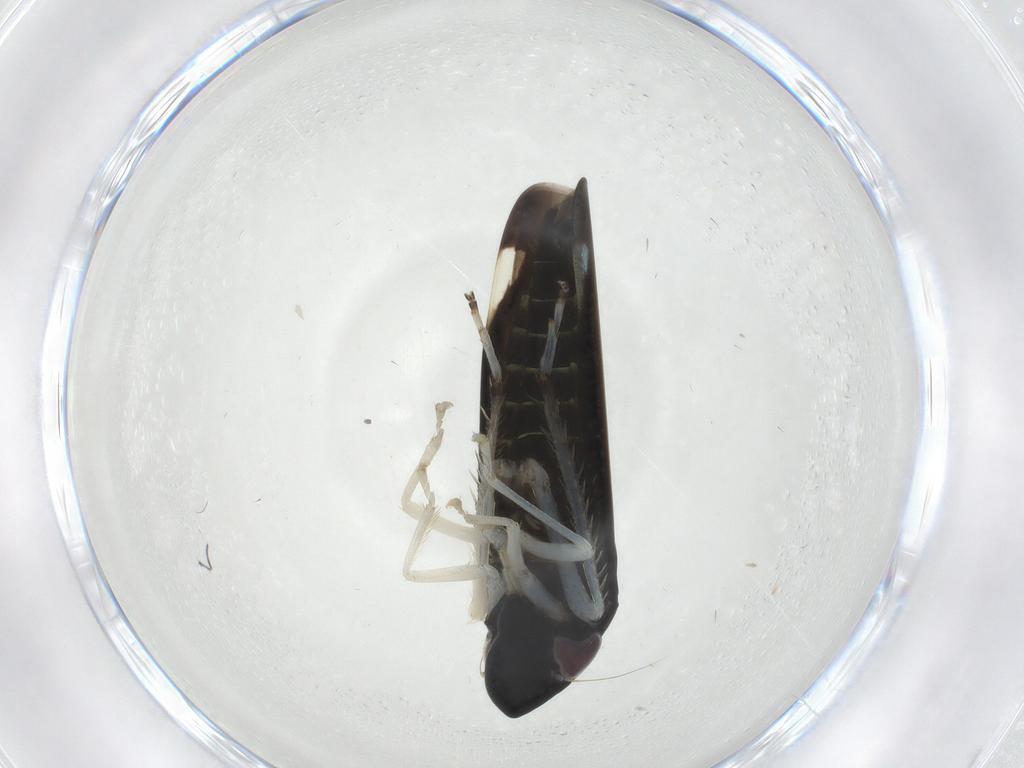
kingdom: Animalia
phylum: Arthropoda
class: Insecta
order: Hemiptera
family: Cicadellidae
